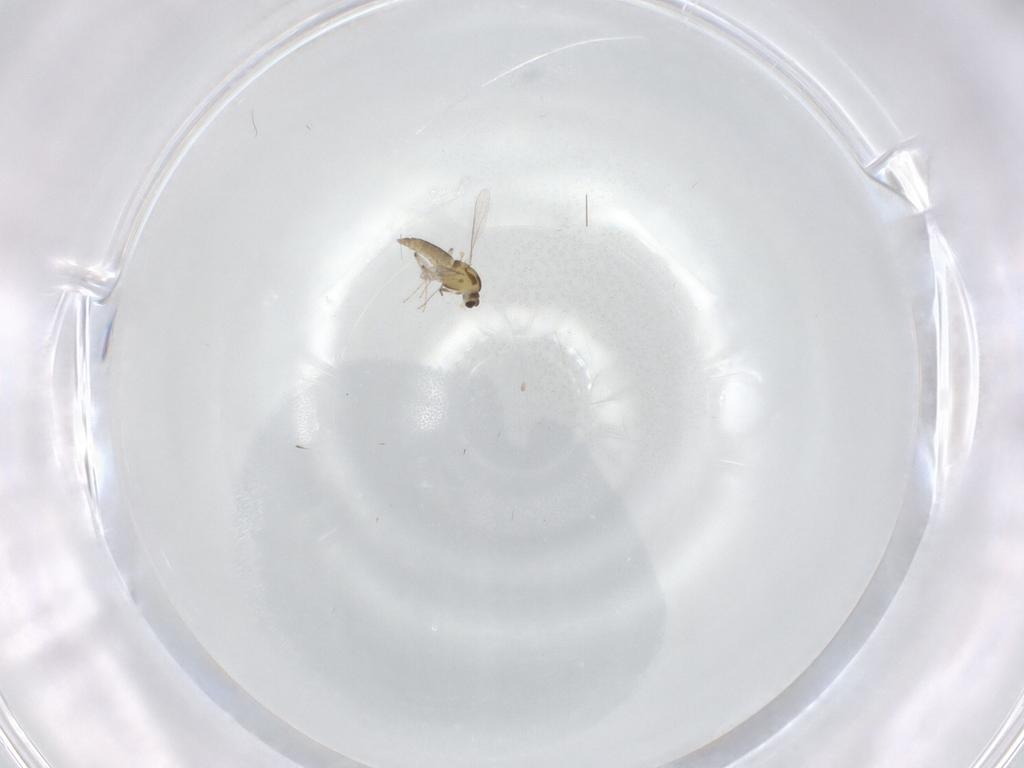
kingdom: Animalia
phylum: Arthropoda
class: Insecta
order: Diptera
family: Chironomidae
